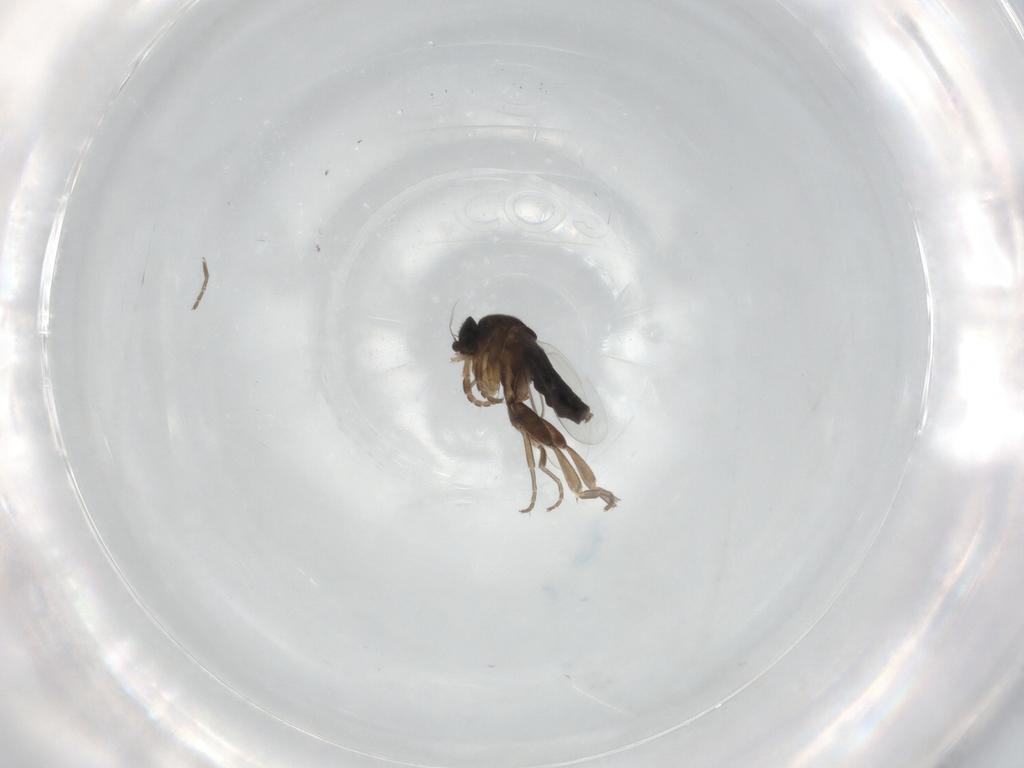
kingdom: Animalia
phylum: Arthropoda
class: Insecta
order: Diptera
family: Phoridae
